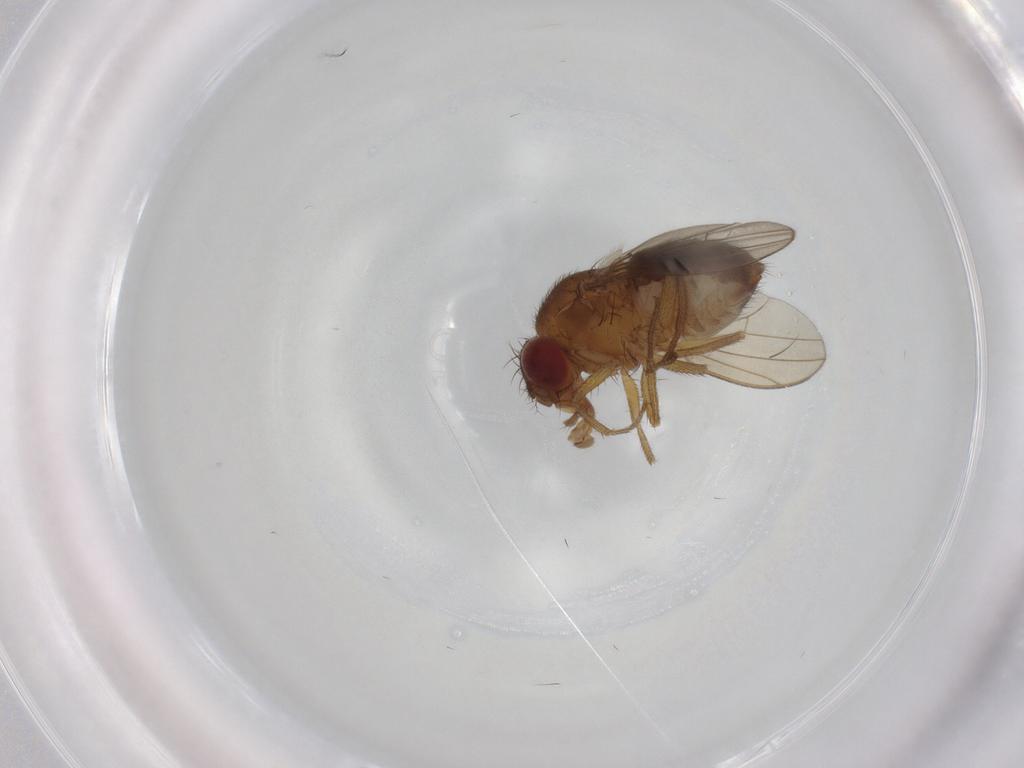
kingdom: Animalia
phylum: Arthropoda
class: Insecta
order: Diptera
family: Drosophilidae
